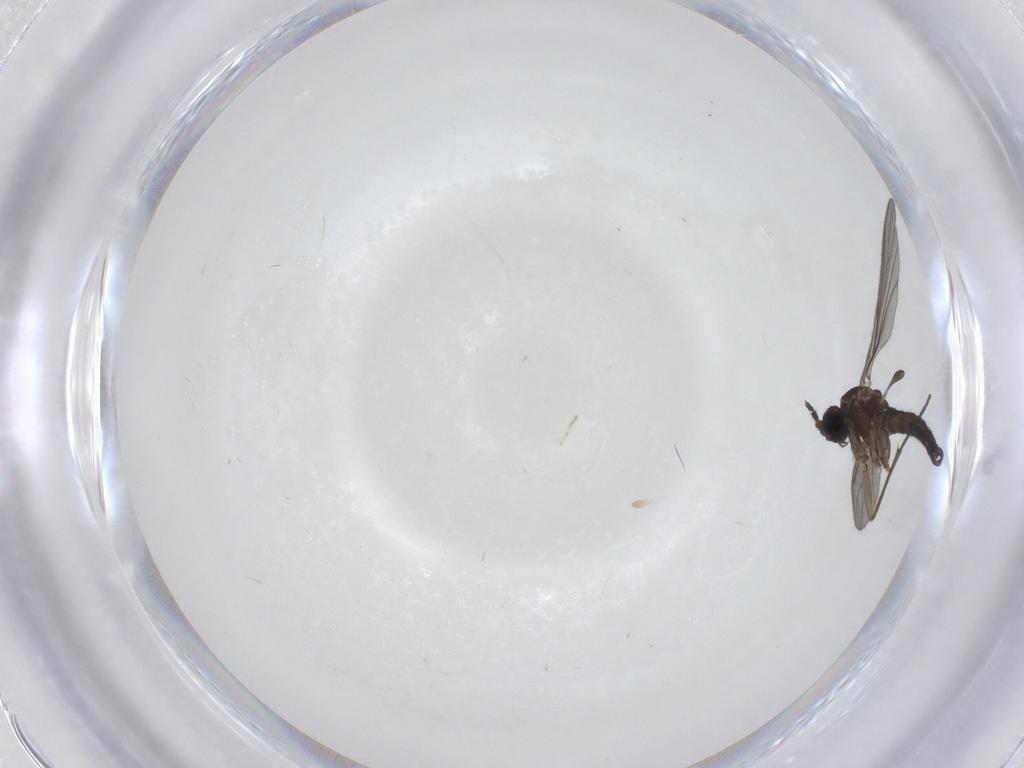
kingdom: Animalia
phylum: Arthropoda
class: Insecta
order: Diptera
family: Sciaridae
